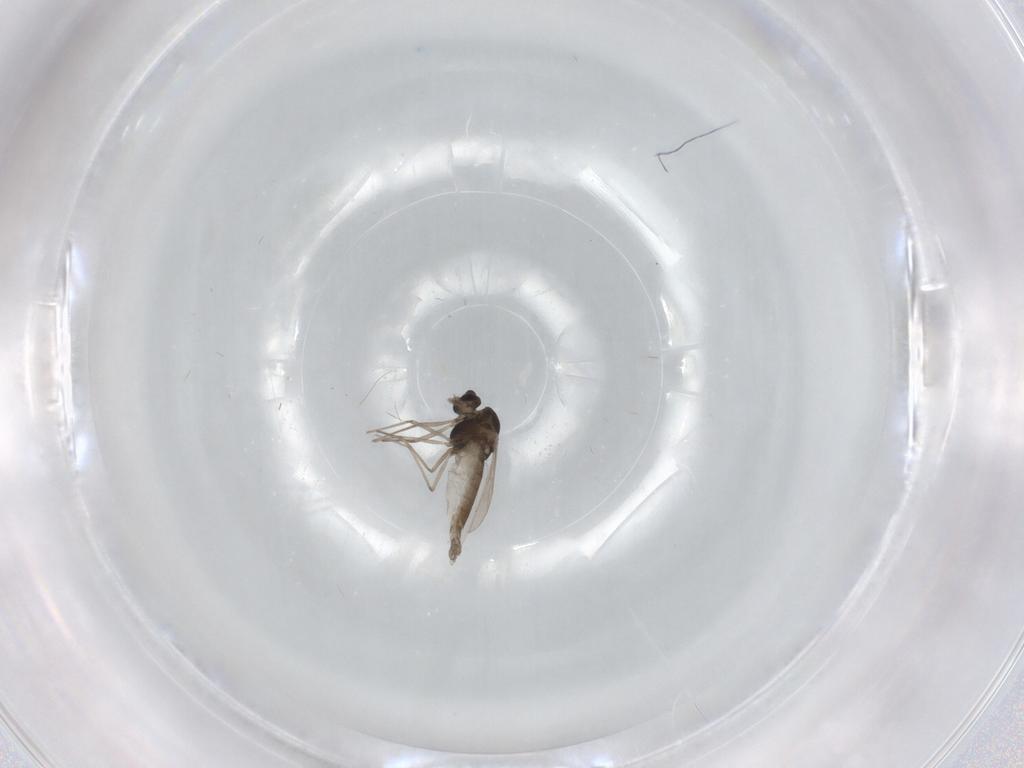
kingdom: Animalia
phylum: Arthropoda
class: Insecta
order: Diptera
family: Chironomidae
